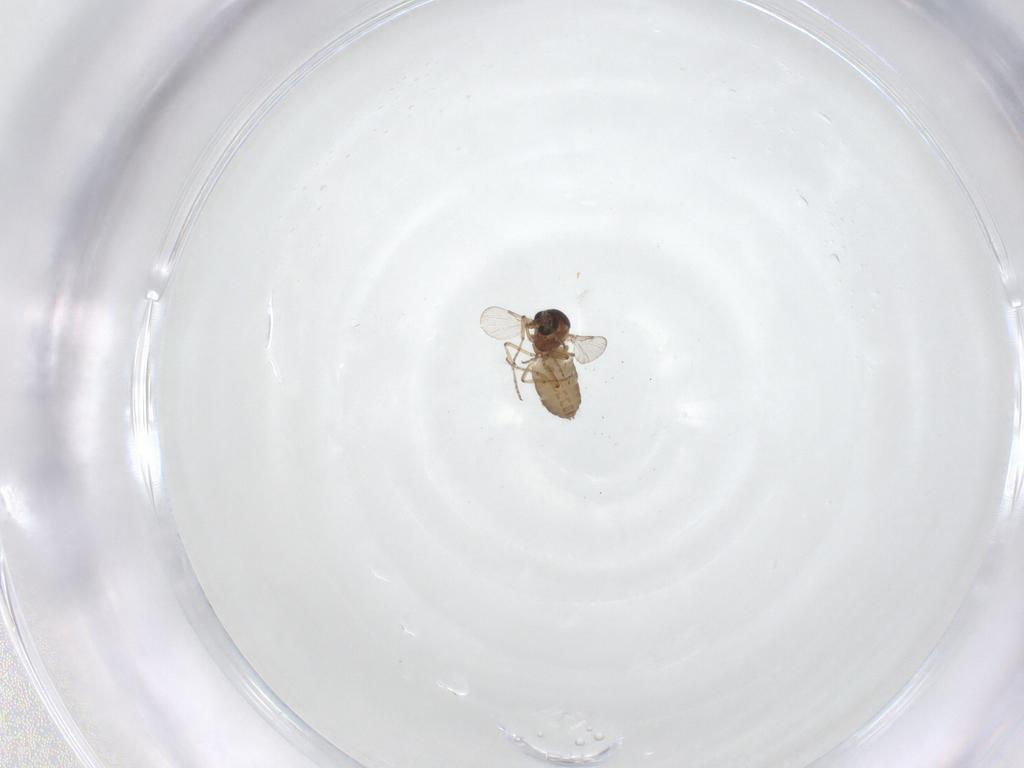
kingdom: Animalia
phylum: Arthropoda
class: Insecta
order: Diptera
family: Ceratopogonidae
